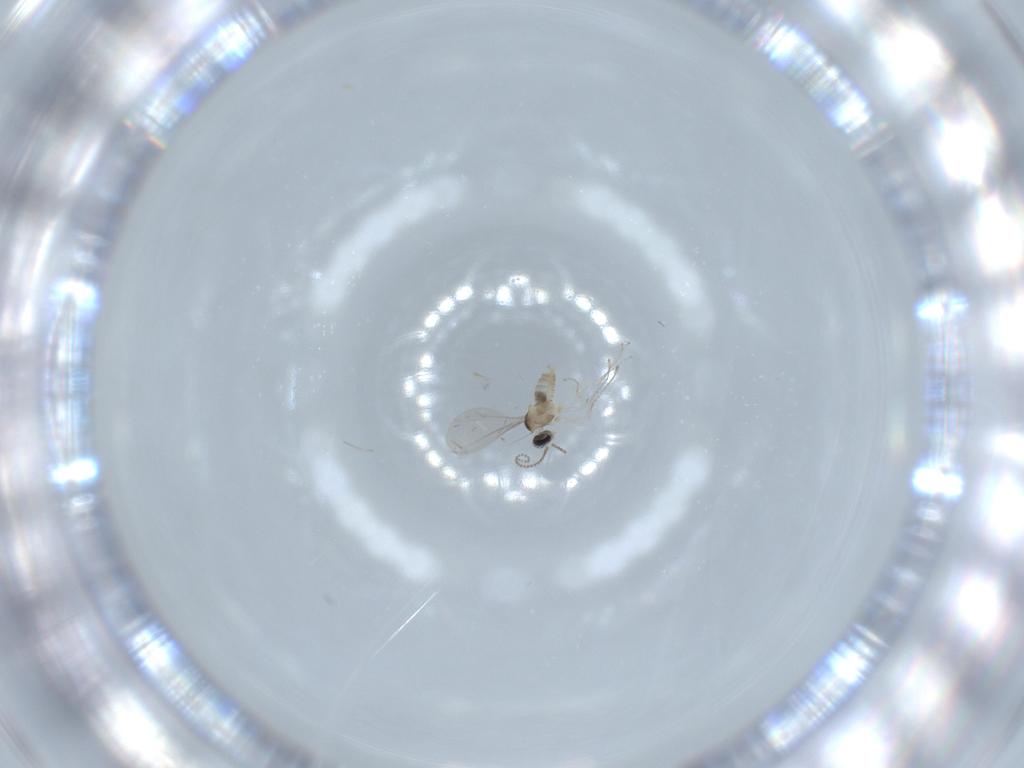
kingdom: Animalia
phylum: Arthropoda
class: Insecta
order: Diptera
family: Cecidomyiidae
